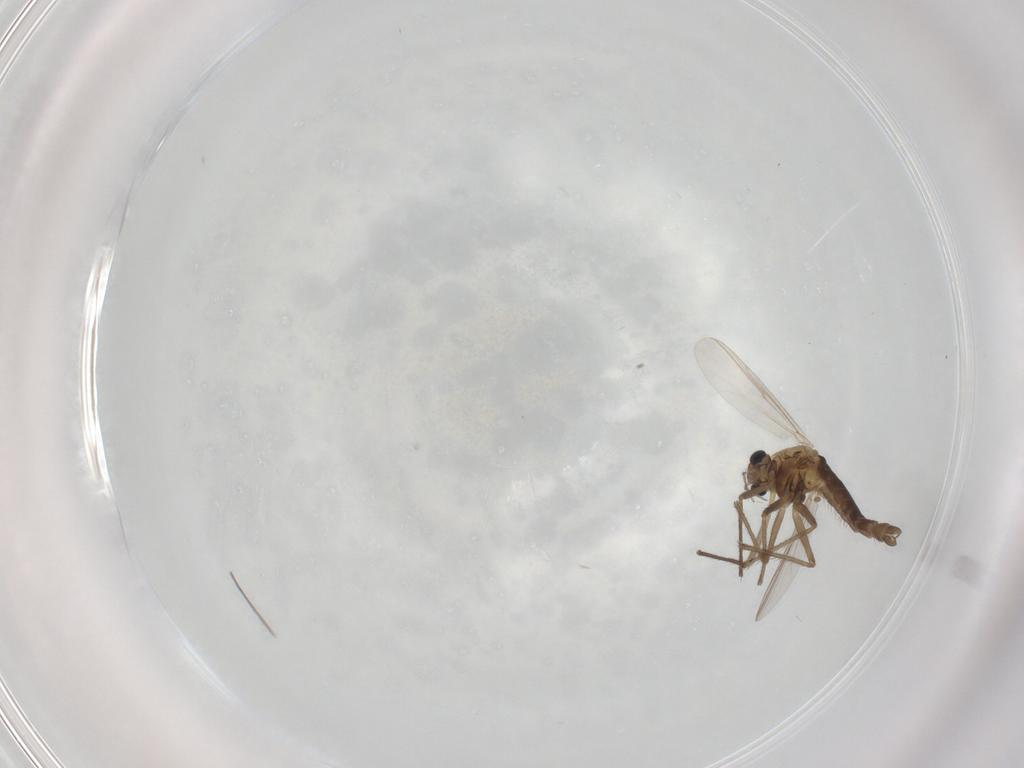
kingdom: Animalia
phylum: Arthropoda
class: Insecta
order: Diptera
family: Chironomidae
